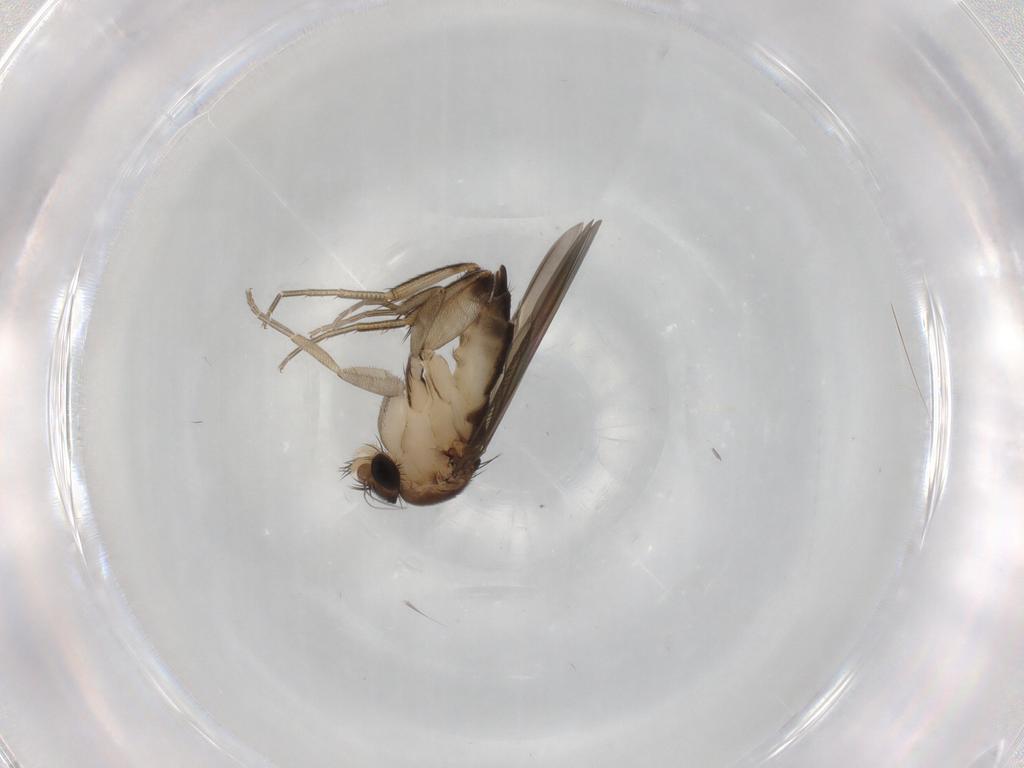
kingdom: Animalia
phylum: Arthropoda
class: Insecta
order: Diptera
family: Phoridae
